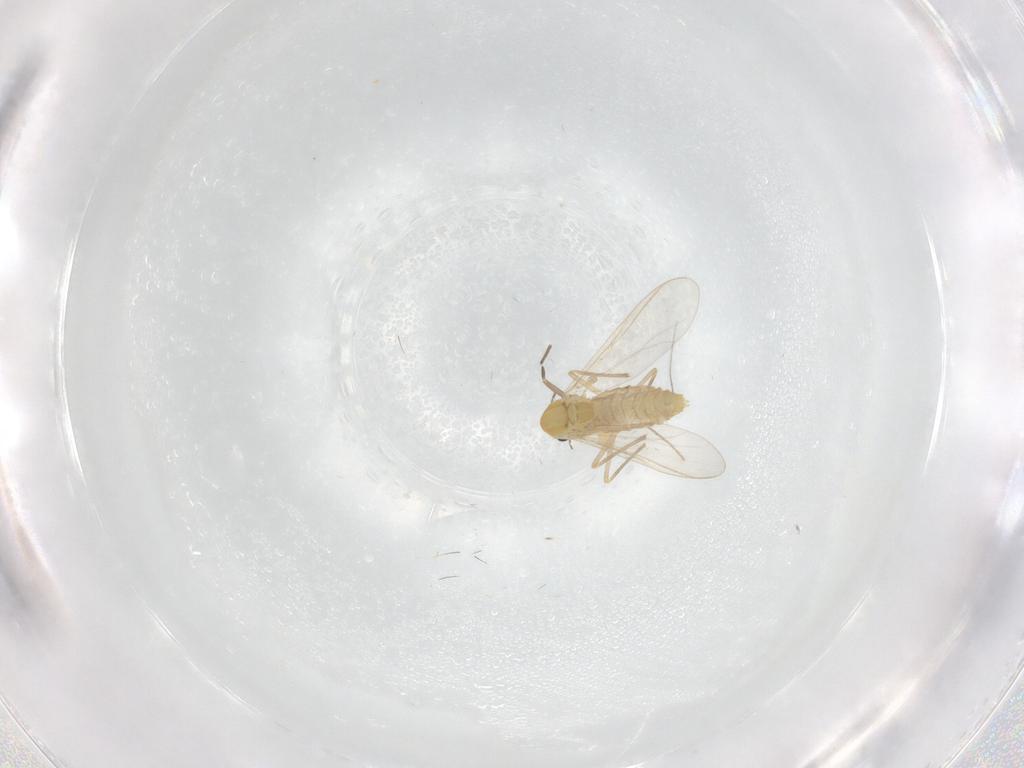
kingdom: Animalia
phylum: Arthropoda
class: Insecta
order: Diptera
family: Chironomidae
